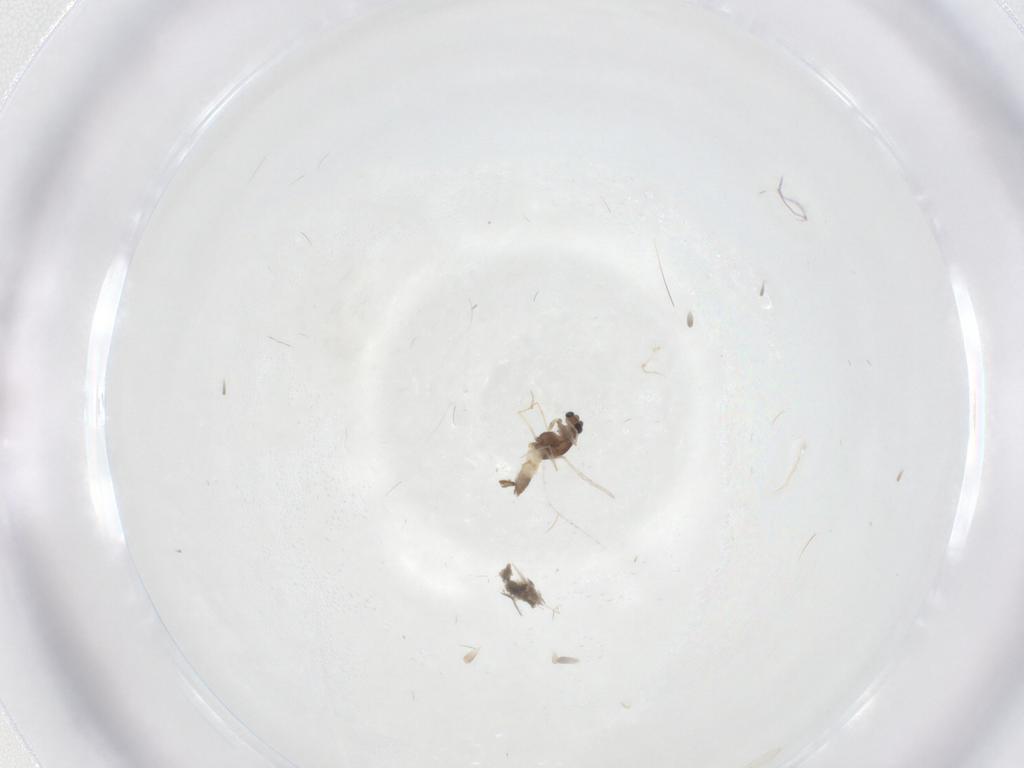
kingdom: Animalia
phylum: Arthropoda
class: Insecta
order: Diptera
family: Chironomidae
